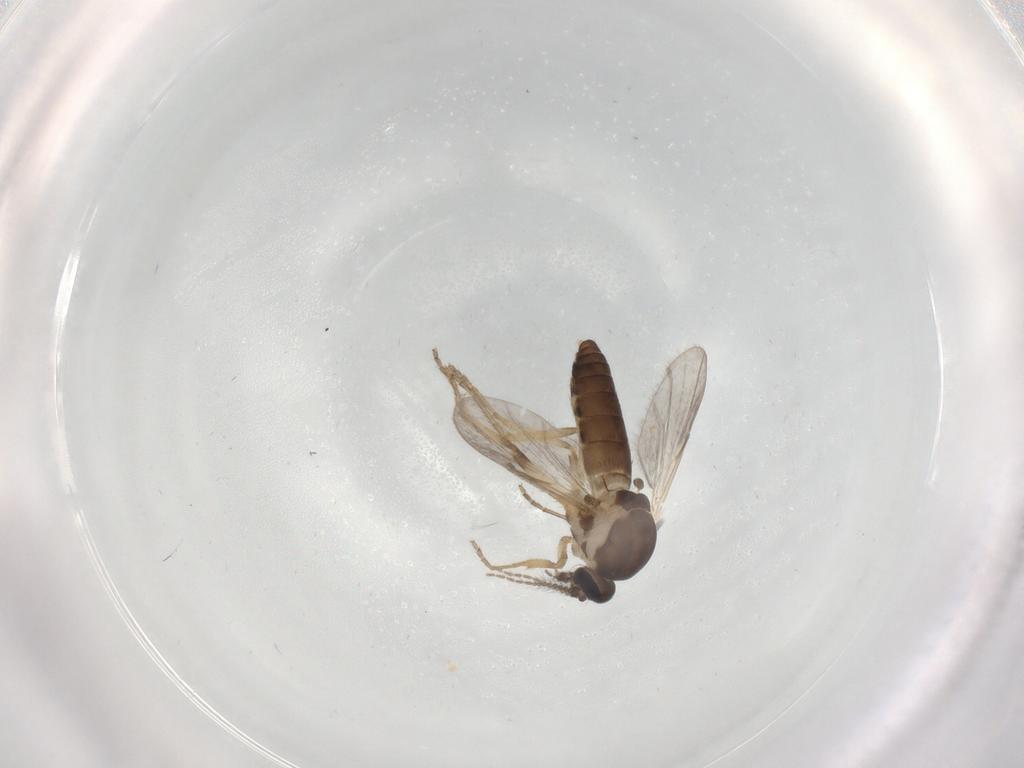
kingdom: Animalia
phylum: Arthropoda
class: Insecta
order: Diptera
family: Ceratopogonidae
